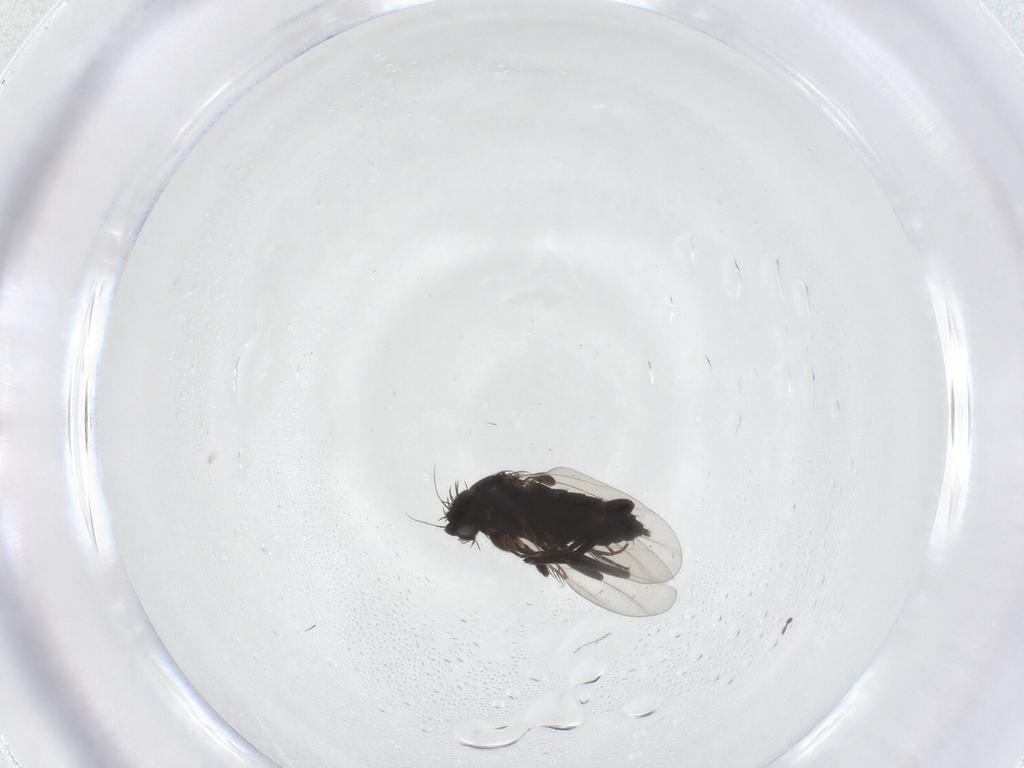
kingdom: Animalia
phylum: Arthropoda
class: Insecta
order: Diptera
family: Phoridae
